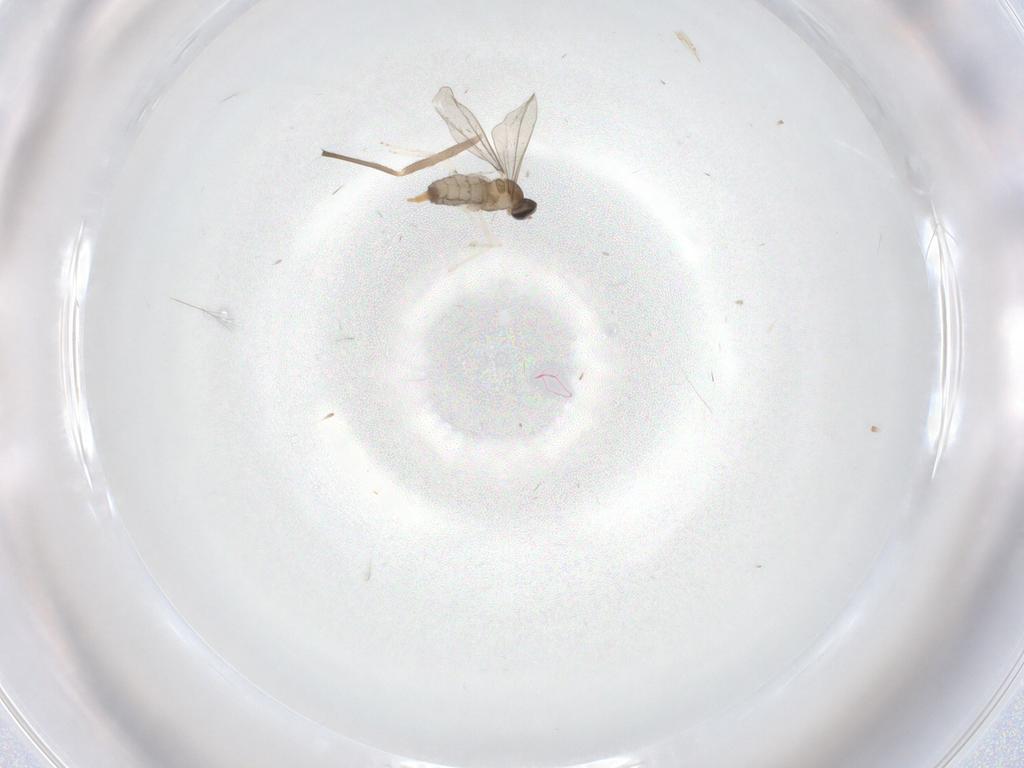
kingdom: Animalia
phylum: Arthropoda
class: Insecta
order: Diptera
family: Chironomidae
